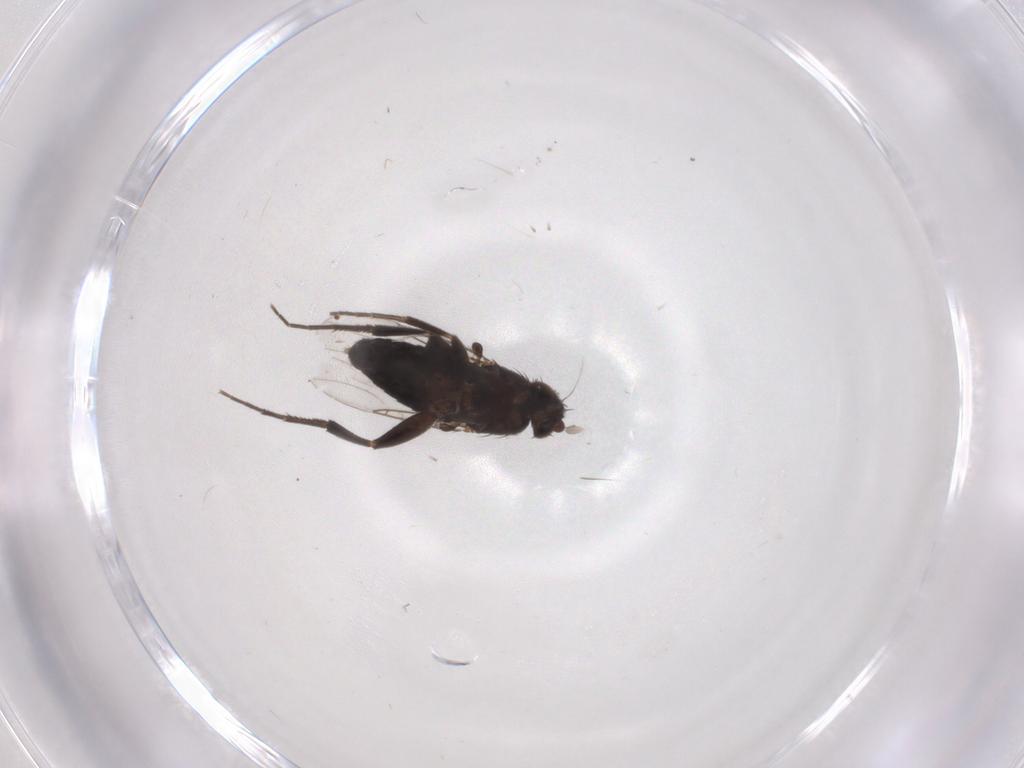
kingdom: Animalia
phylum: Arthropoda
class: Insecta
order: Diptera
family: Phoridae
